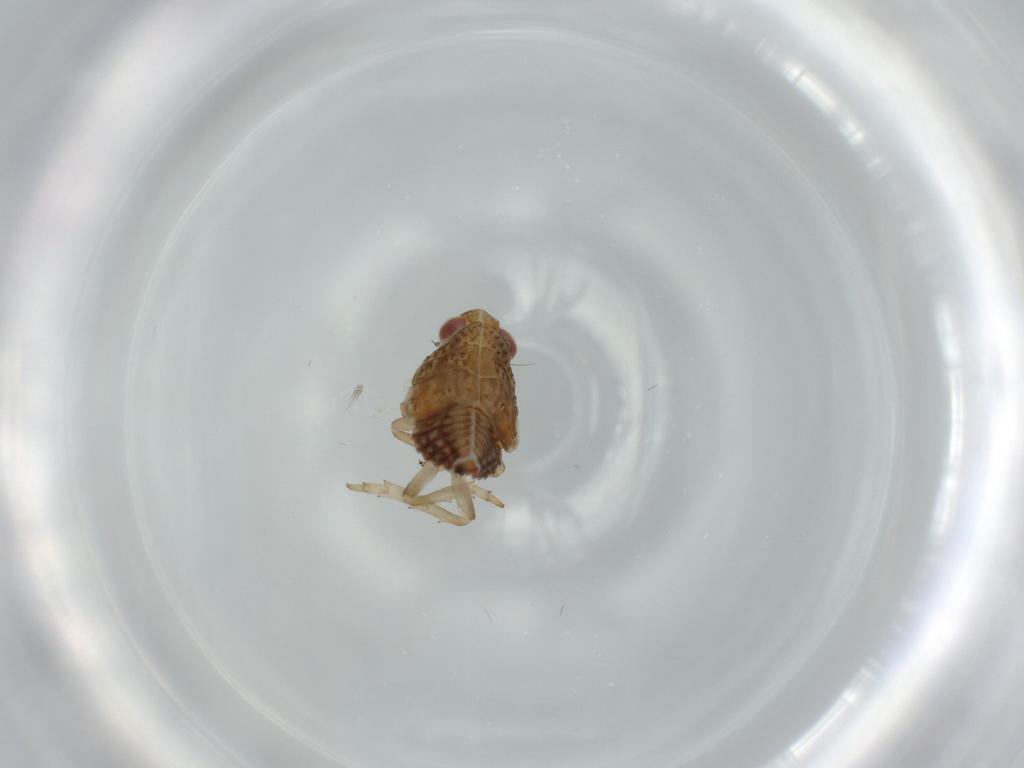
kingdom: Animalia
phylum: Arthropoda
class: Insecta
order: Hemiptera
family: Issidae
